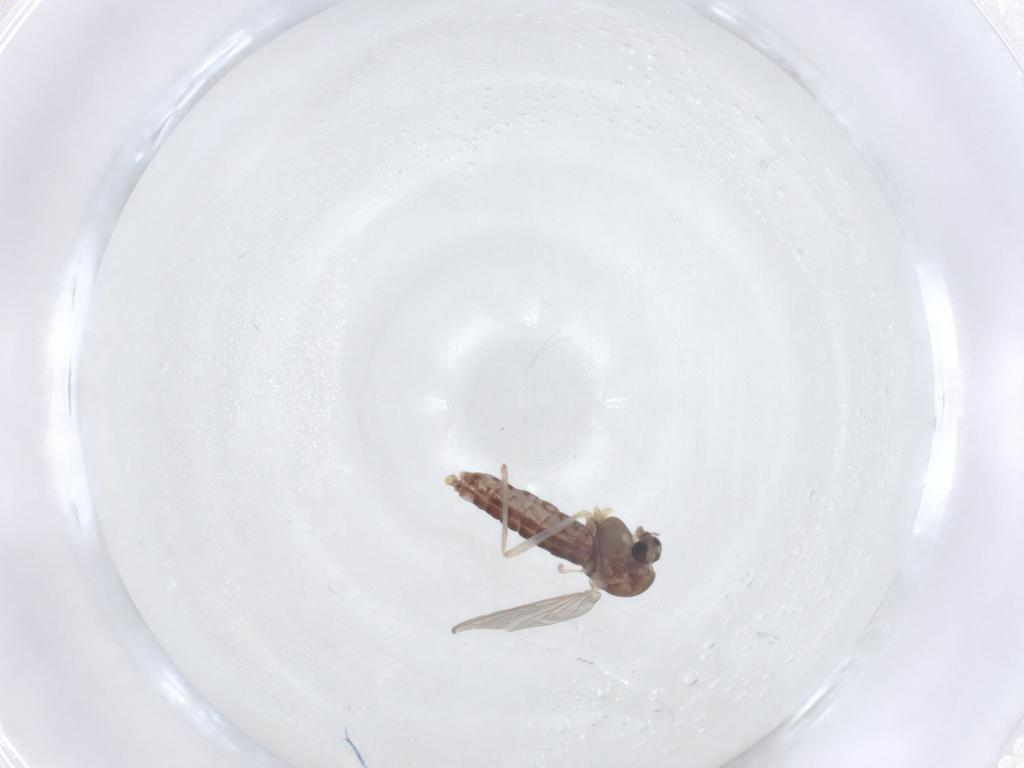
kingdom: Animalia
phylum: Arthropoda
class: Insecta
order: Diptera
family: Chironomidae
